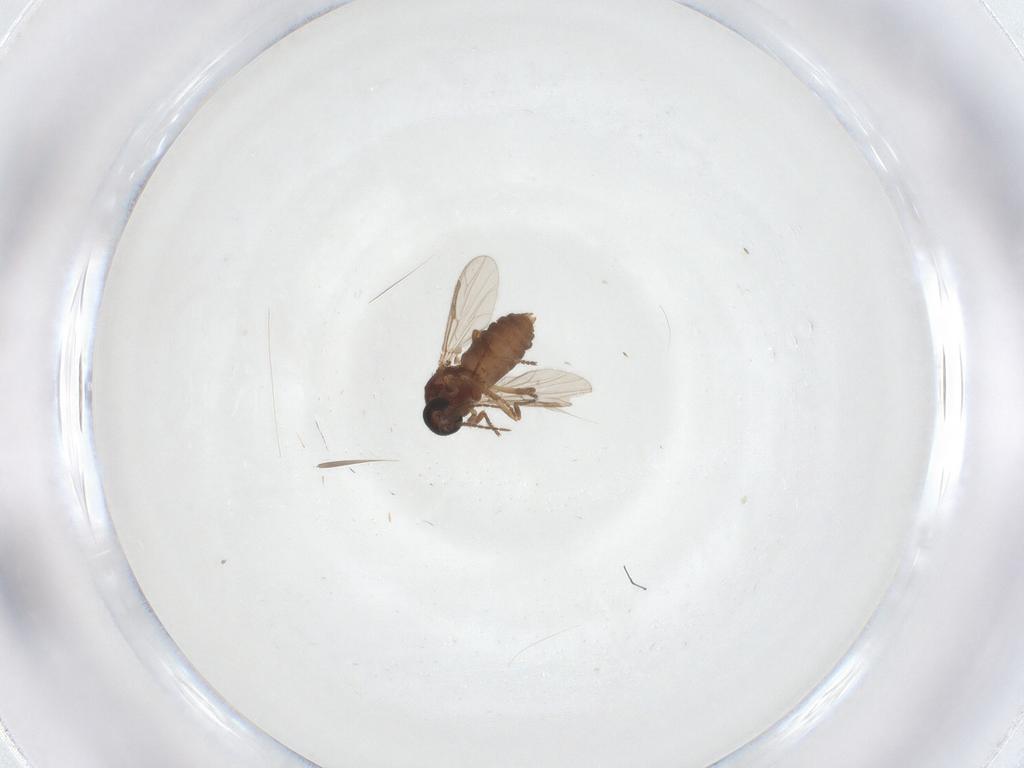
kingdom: Animalia
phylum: Arthropoda
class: Insecta
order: Diptera
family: Ceratopogonidae
